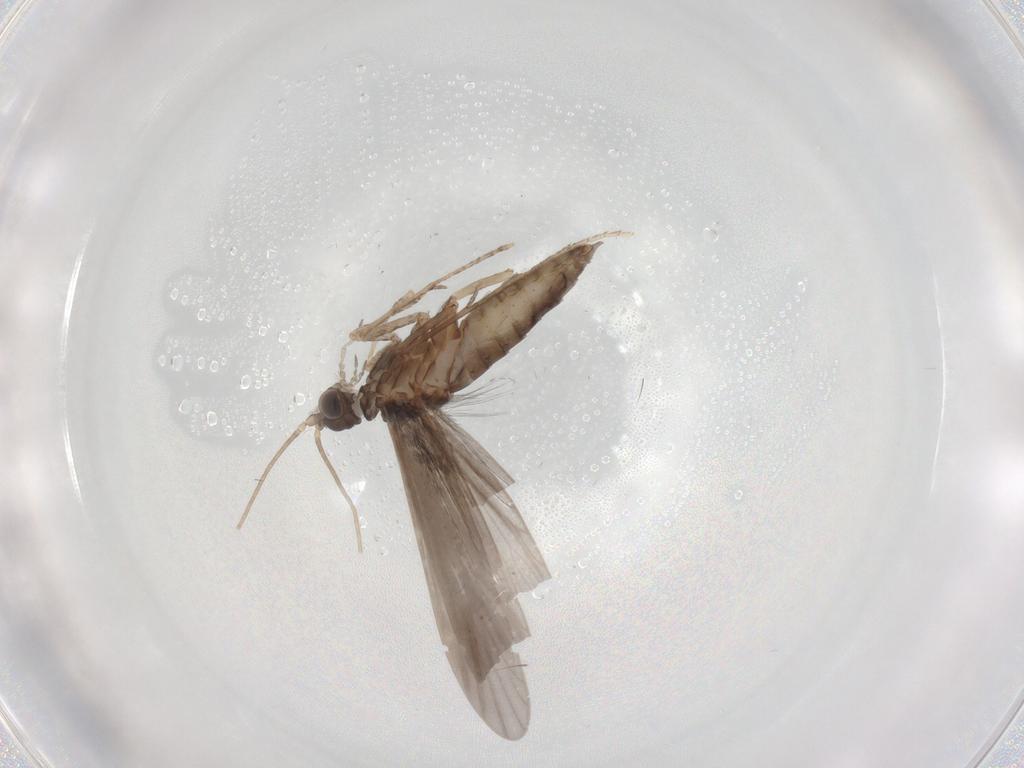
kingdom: Animalia
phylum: Arthropoda
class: Insecta
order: Trichoptera
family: Xiphocentronidae
